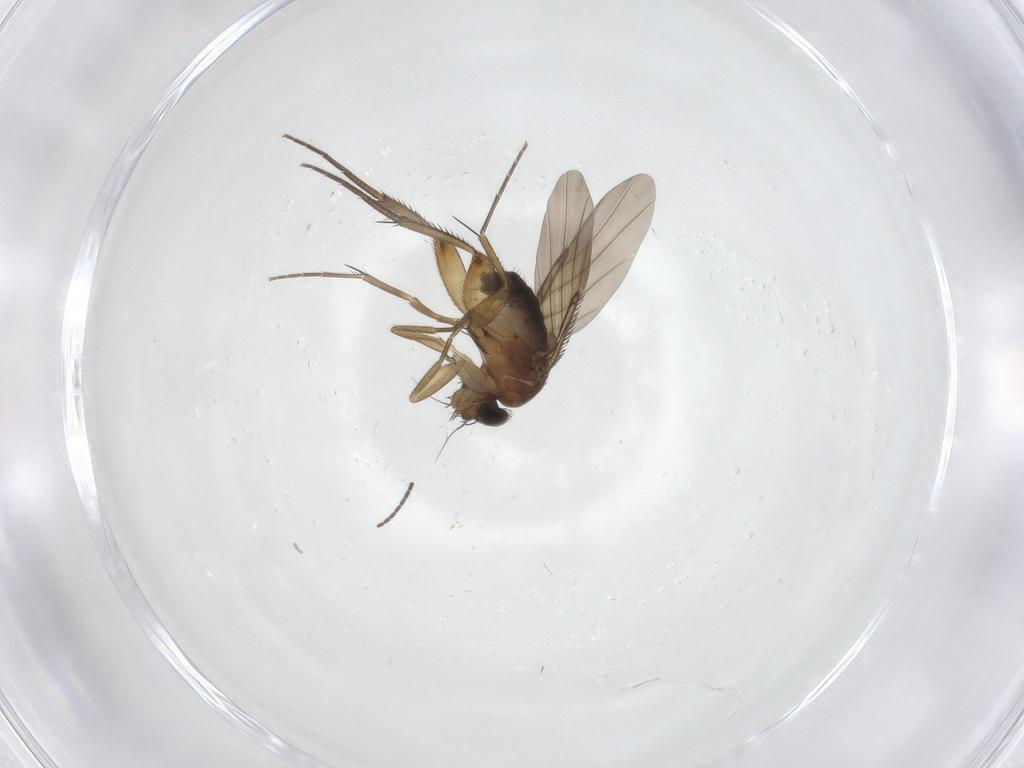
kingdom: Animalia
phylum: Arthropoda
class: Insecta
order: Diptera
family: Phoridae
